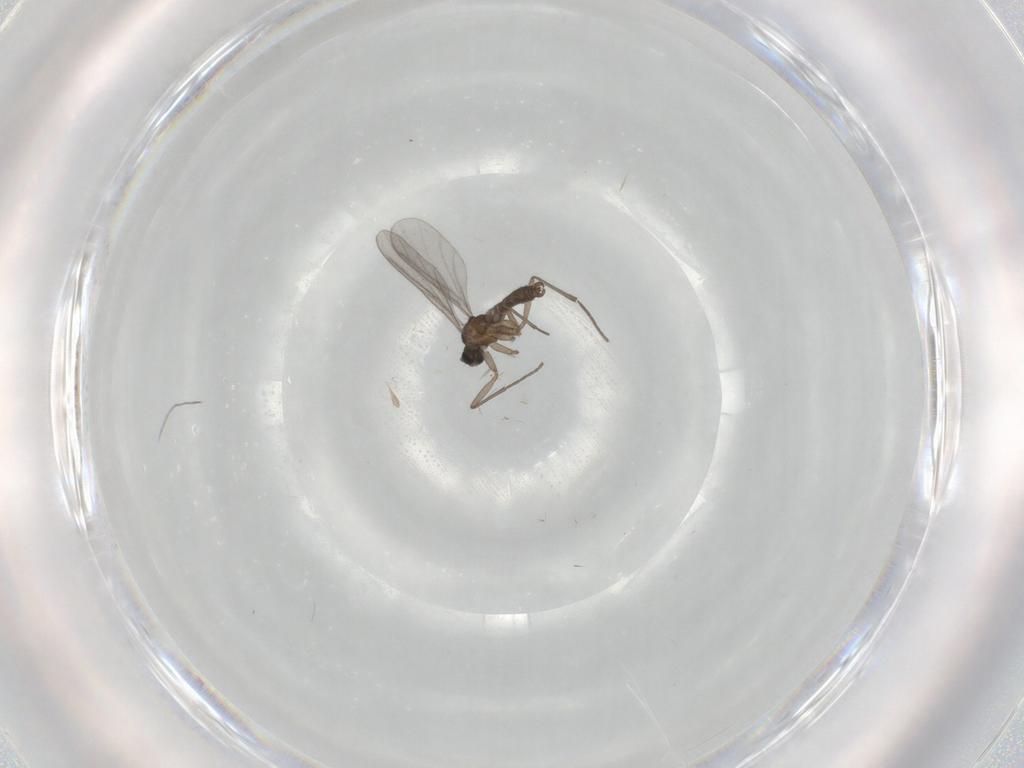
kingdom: Animalia
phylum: Arthropoda
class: Insecta
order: Diptera
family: Sciaridae
